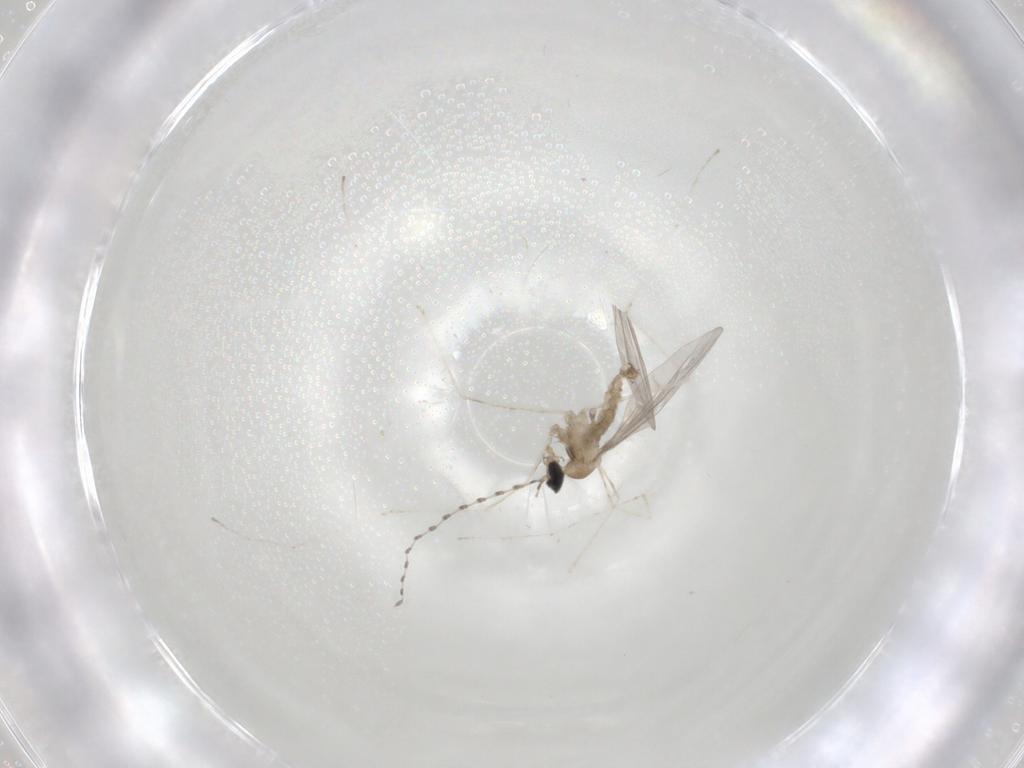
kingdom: Animalia
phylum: Arthropoda
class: Insecta
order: Diptera
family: Cecidomyiidae
